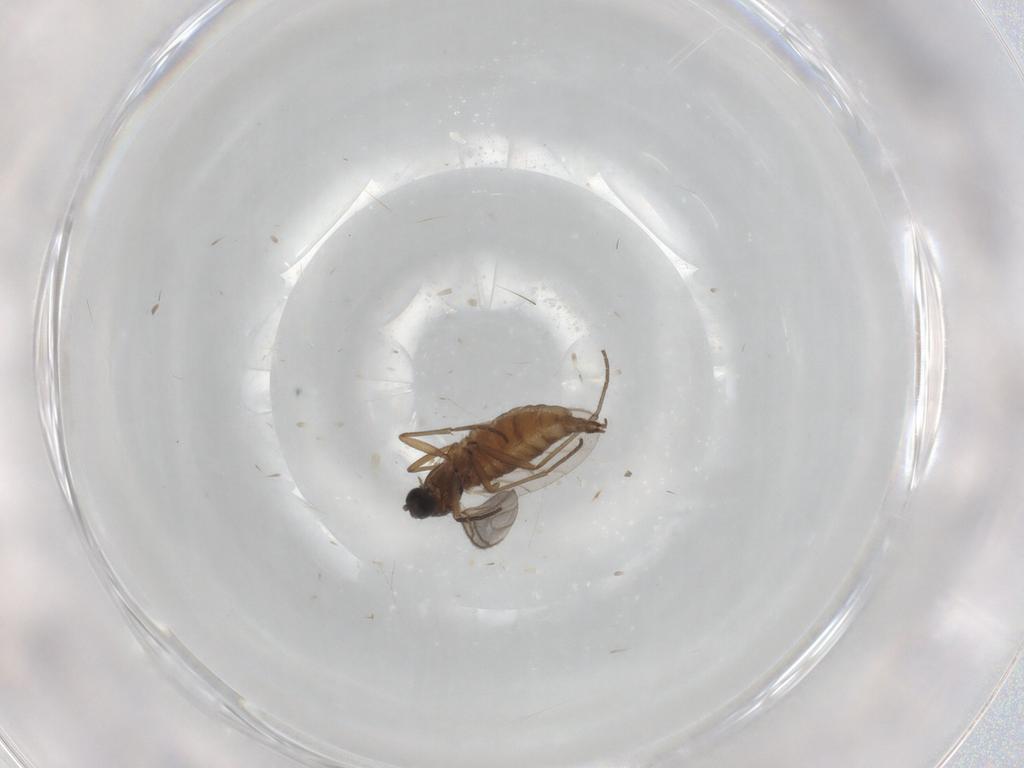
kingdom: Animalia
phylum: Arthropoda
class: Insecta
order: Diptera
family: Sciaridae
